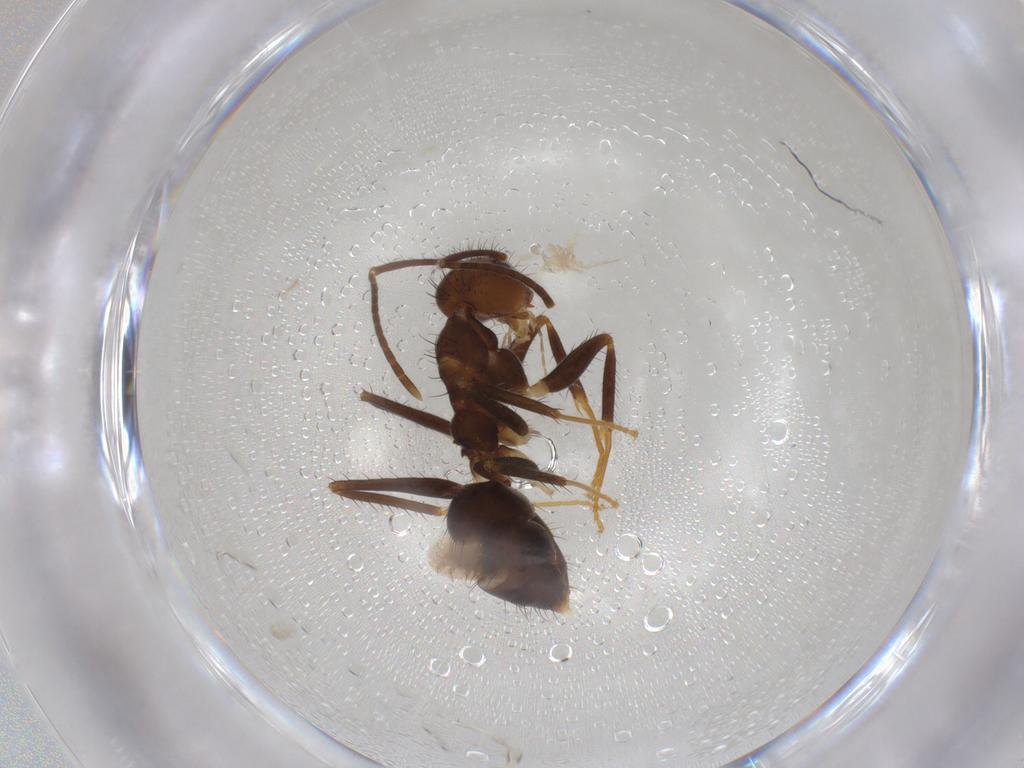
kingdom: Animalia
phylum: Arthropoda
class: Insecta
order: Hymenoptera
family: Formicidae
